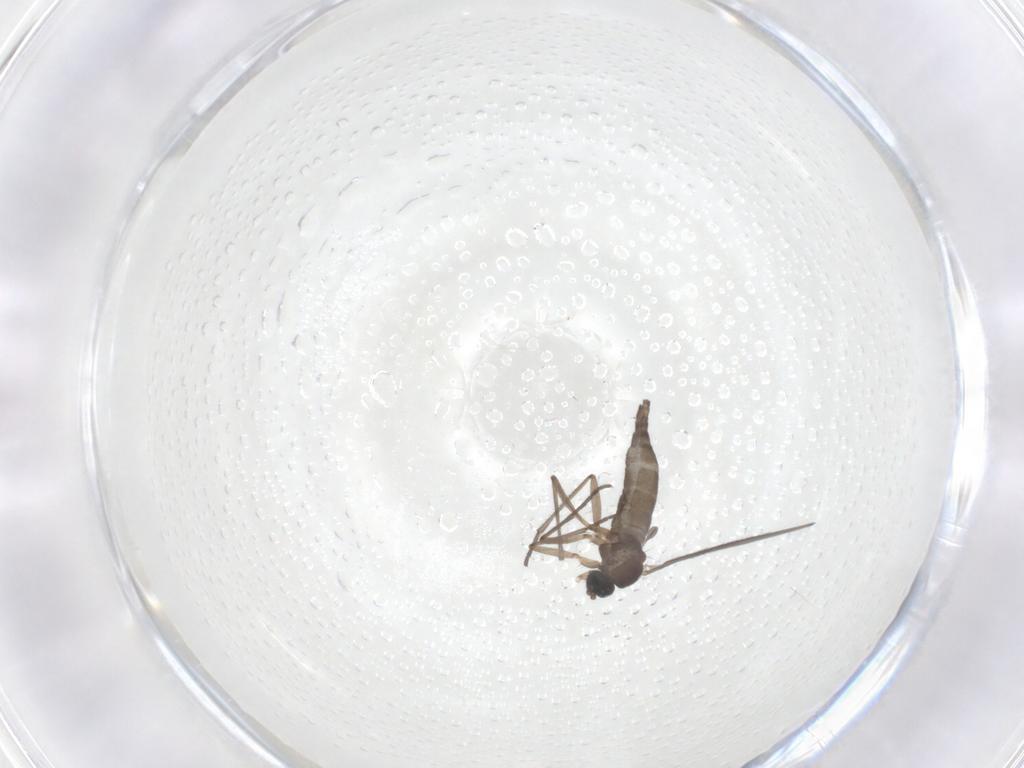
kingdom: Animalia
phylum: Arthropoda
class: Insecta
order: Diptera
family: Sciaridae
